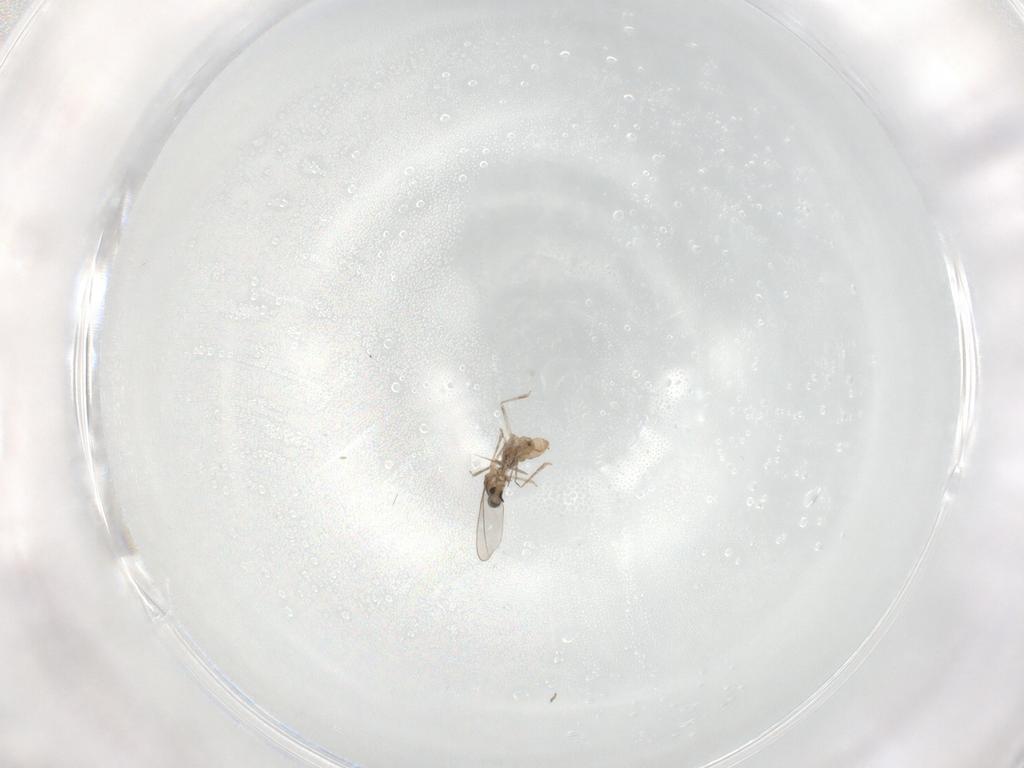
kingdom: Animalia
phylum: Arthropoda
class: Insecta
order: Diptera
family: Cecidomyiidae
